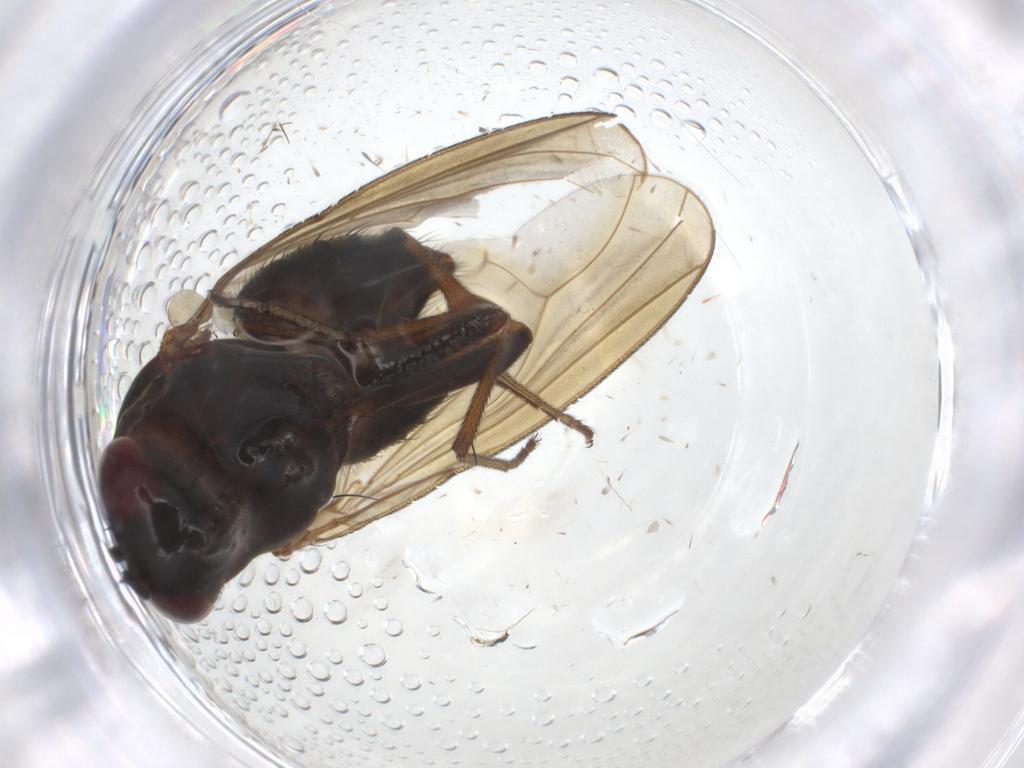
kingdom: Animalia
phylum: Arthropoda
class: Insecta
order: Diptera
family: Culicidae
